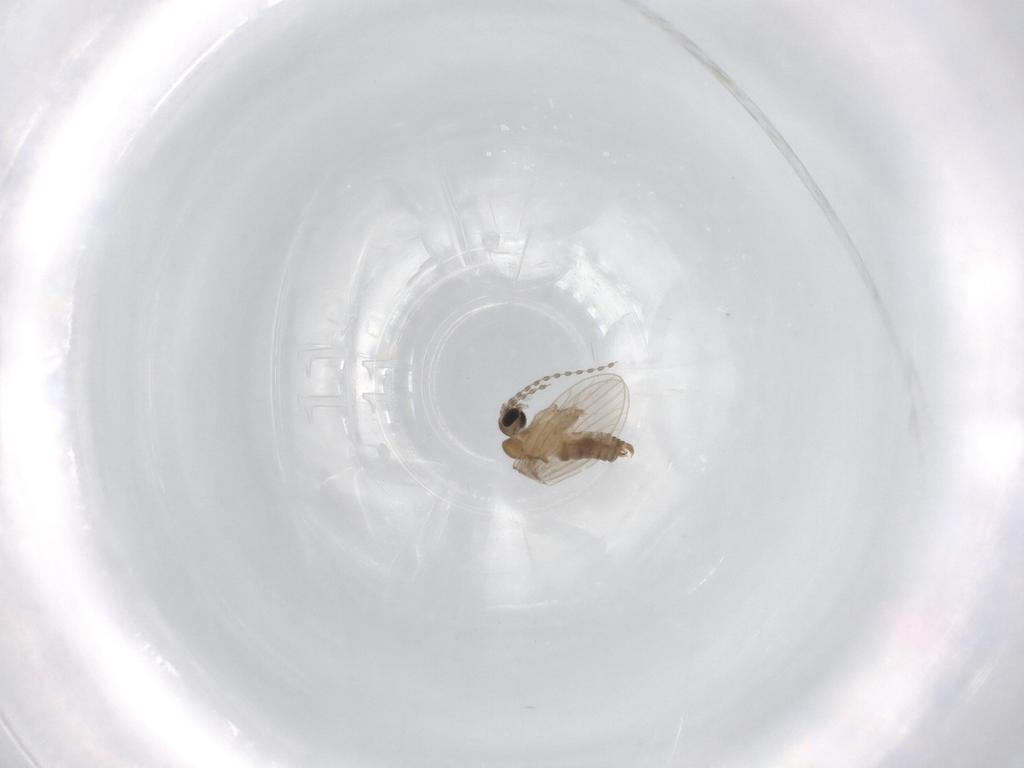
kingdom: Animalia
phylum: Arthropoda
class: Insecta
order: Diptera
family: Psychodidae
